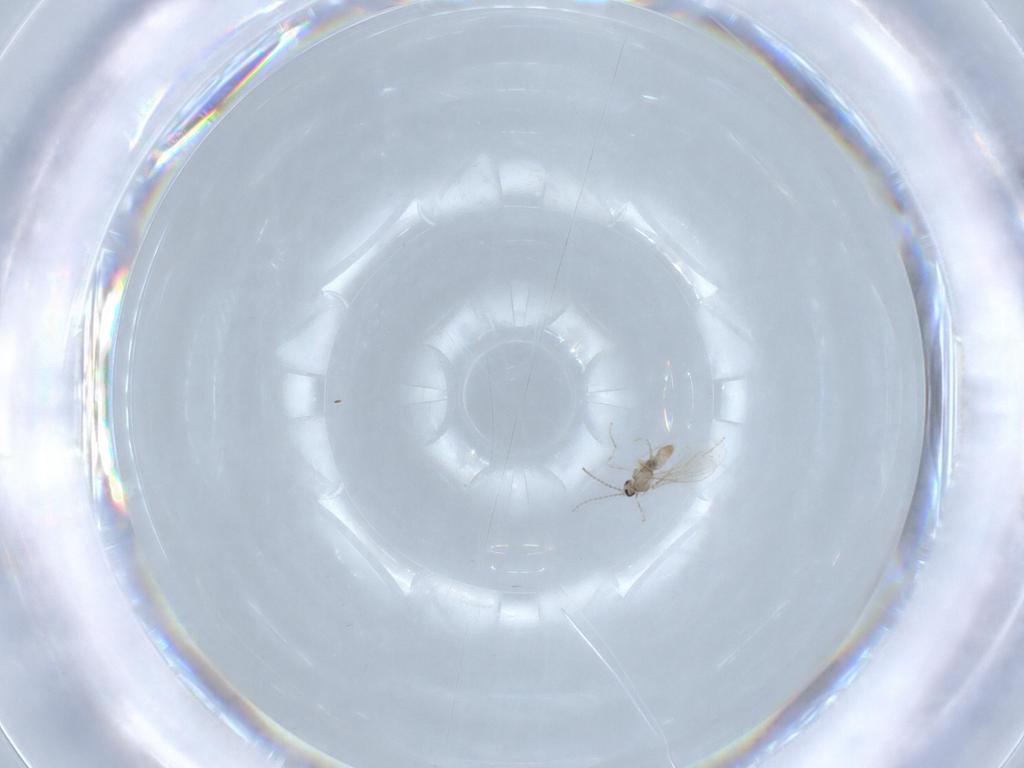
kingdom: Animalia
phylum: Arthropoda
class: Insecta
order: Diptera
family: Cecidomyiidae
